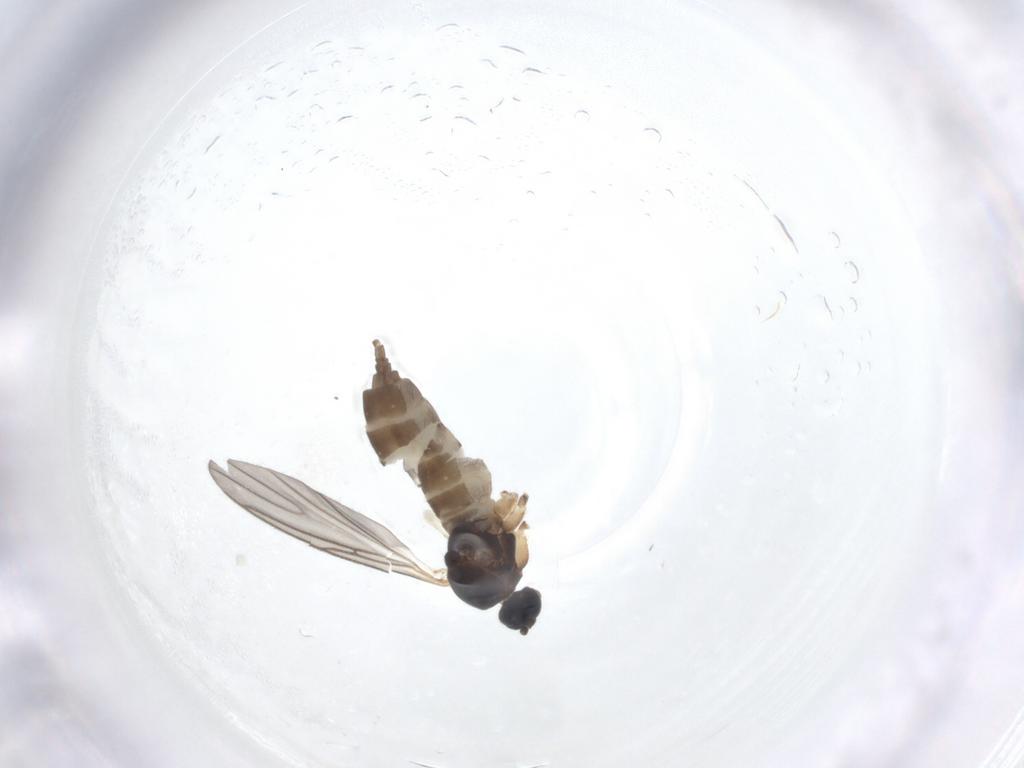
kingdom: Animalia
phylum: Arthropoda
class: Insecta
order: Diptera
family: Sciaridae
